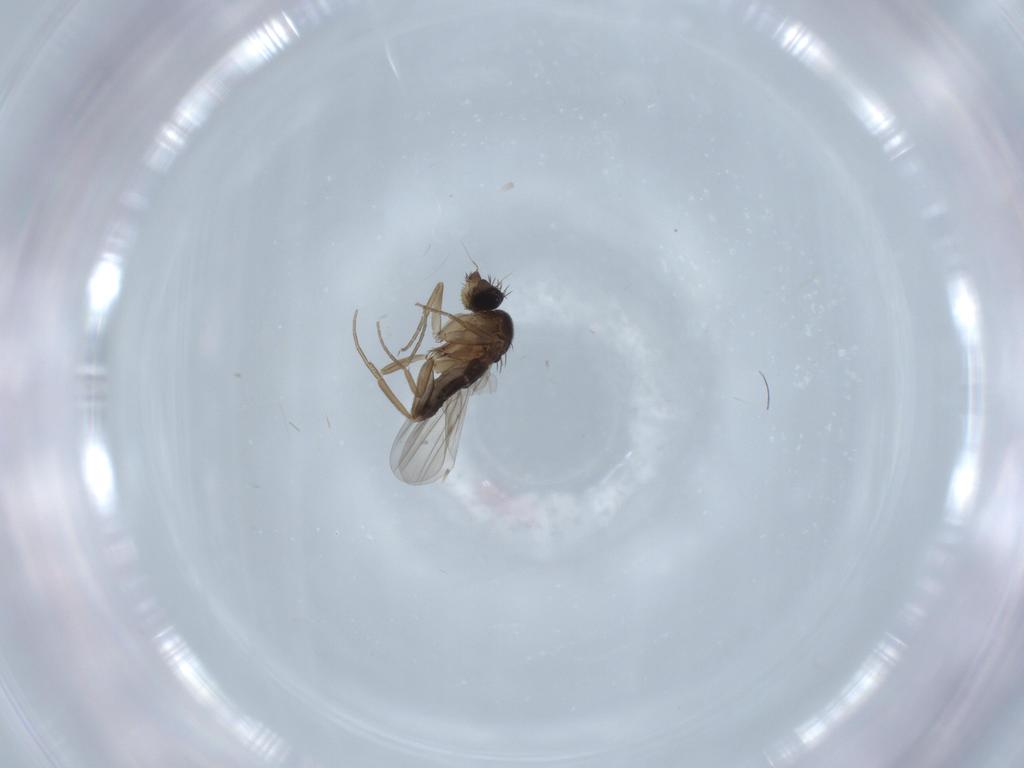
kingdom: Animalia
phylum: Arthropoda
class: Insecta
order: Diptera
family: Phoridae
